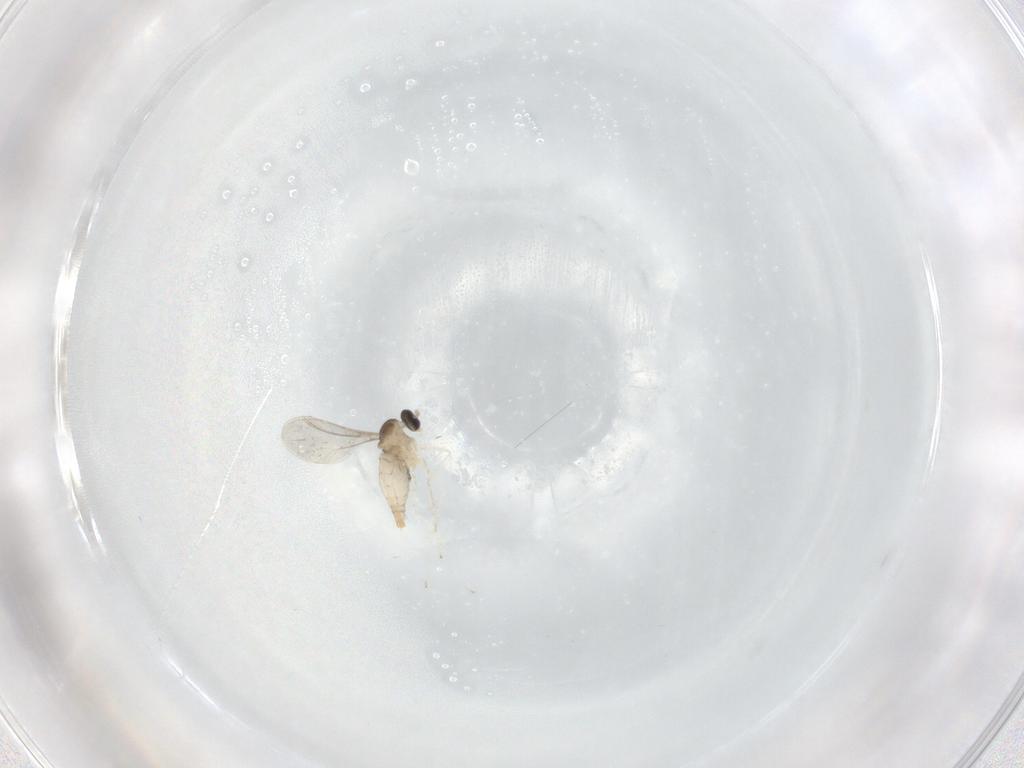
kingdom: Animalia
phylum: Arthropoda
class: Insecta
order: Diptera
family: Cecidomyiidae
